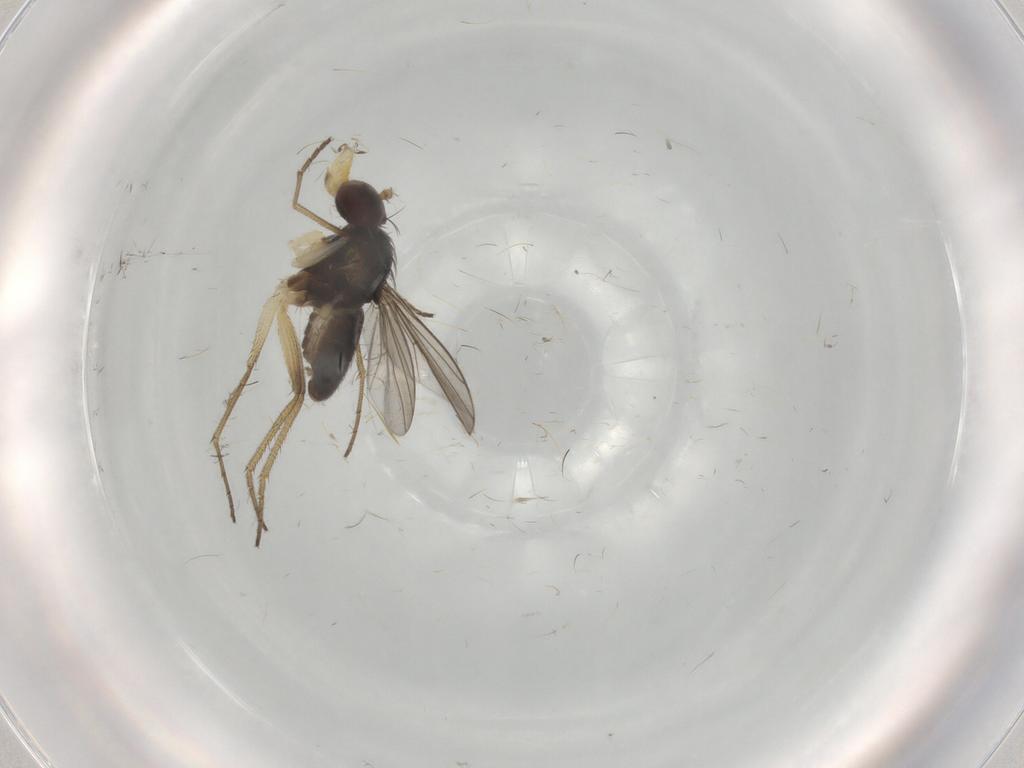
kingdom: Animalia
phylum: Arthropoda
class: Insecta
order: Diptera
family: Dolichopodidae
